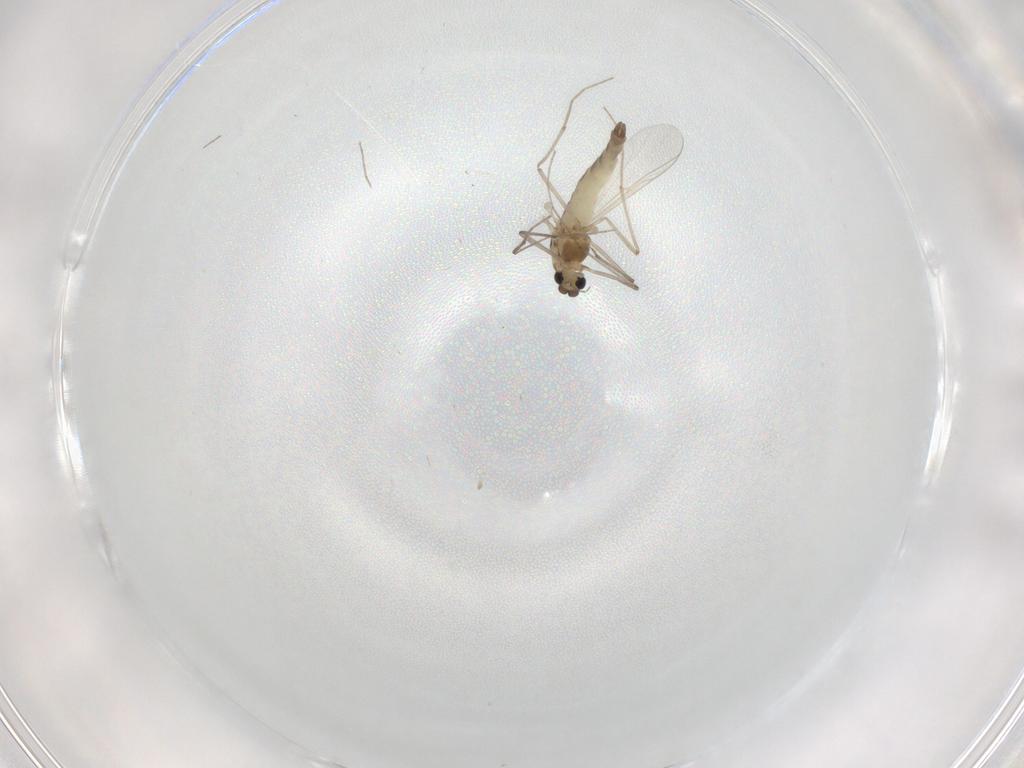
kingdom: Animalia
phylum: Arthropoda
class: Insecta
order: Diptera
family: Chironomidae
